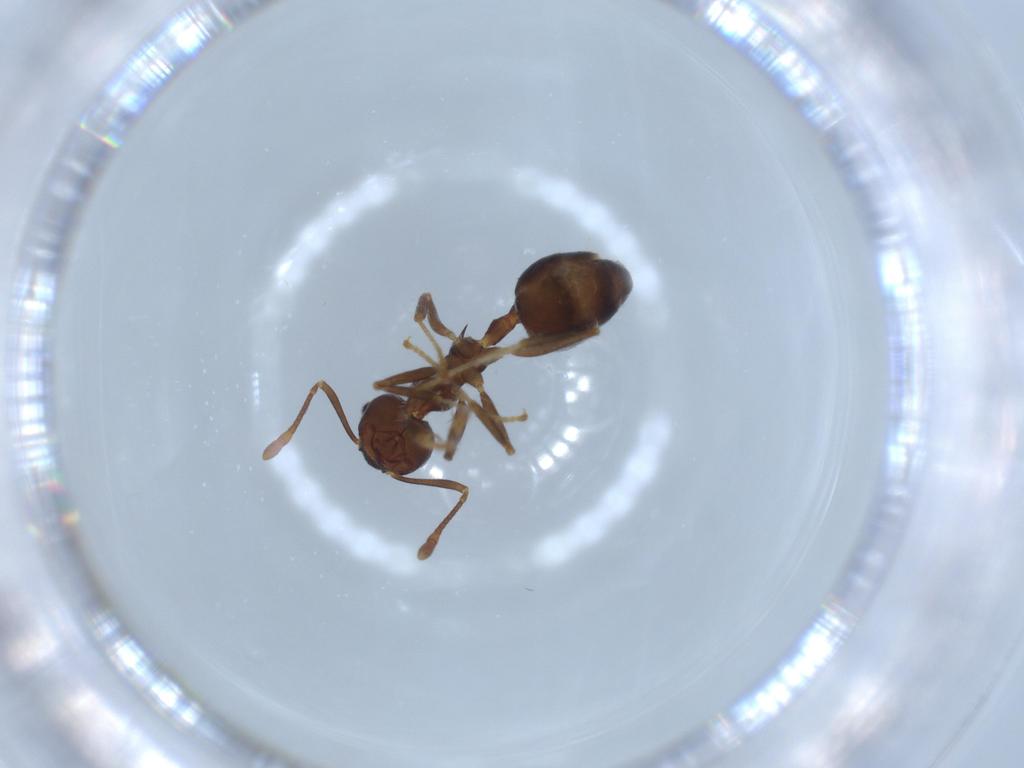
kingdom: Animalia
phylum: Arthropoda
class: Insecta
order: Hymenoptera
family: Formicidae
